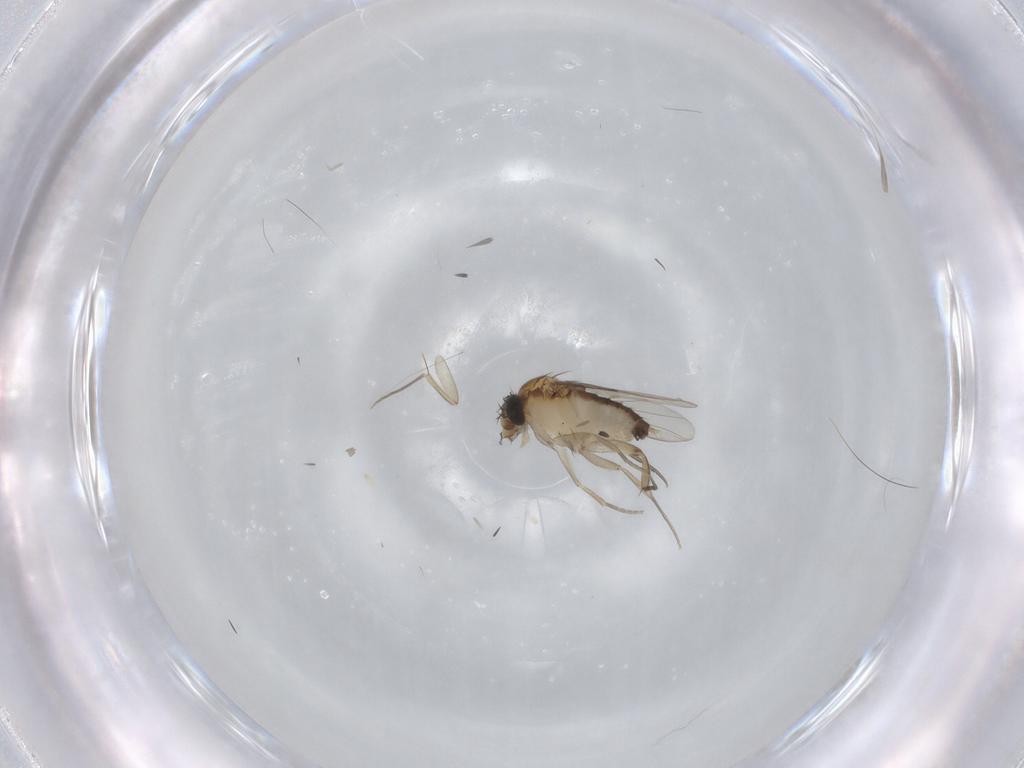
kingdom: Animalia
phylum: Arthropoda
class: Insecta
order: Diptera
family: Phoridae
